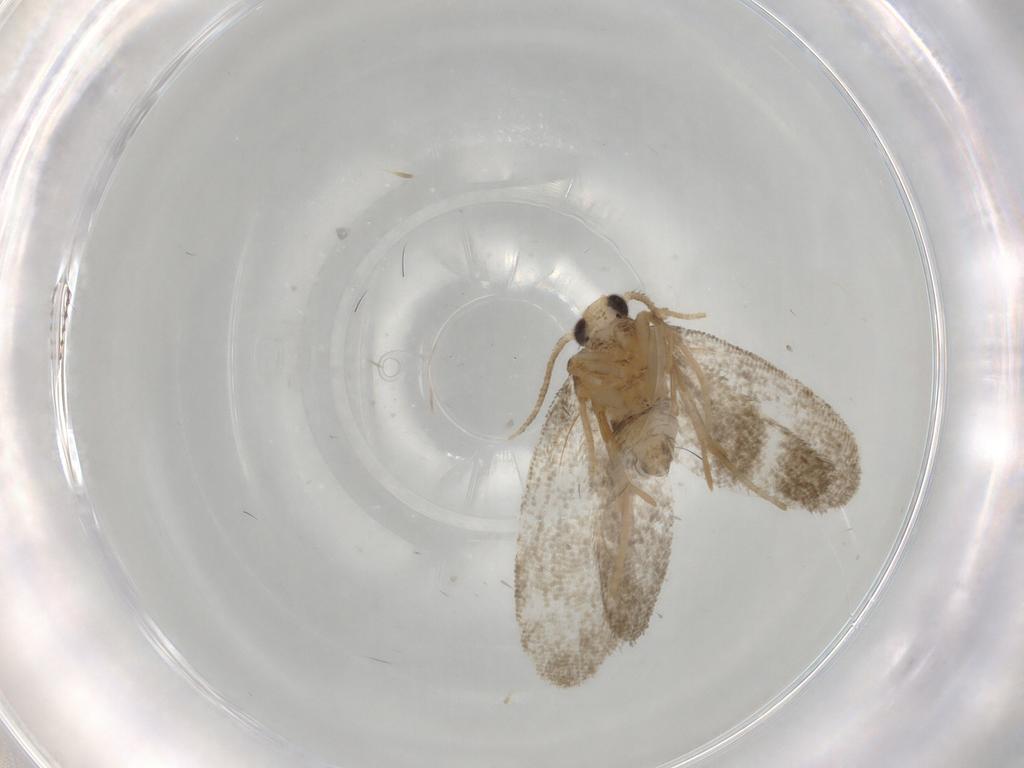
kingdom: Animalia
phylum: Arthropoda
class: Insecta
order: Lepidoptera
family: Psychidae
